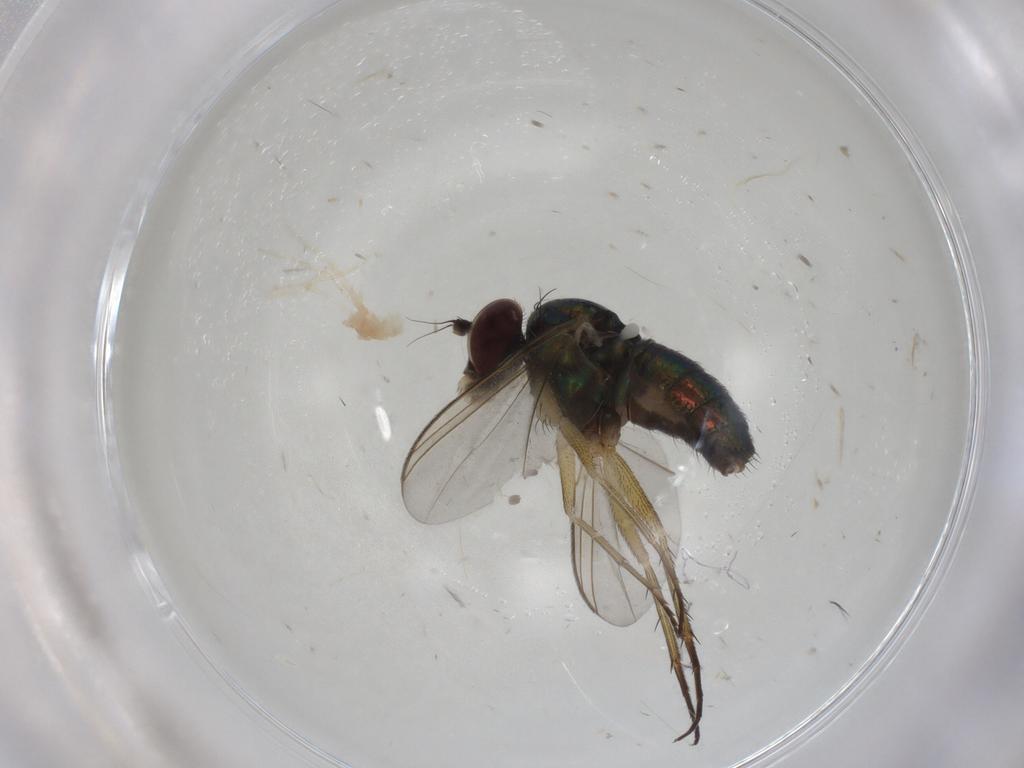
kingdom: Animalia
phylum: Arthropoda
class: Insecta
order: Diptera
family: Dolichopodidae
